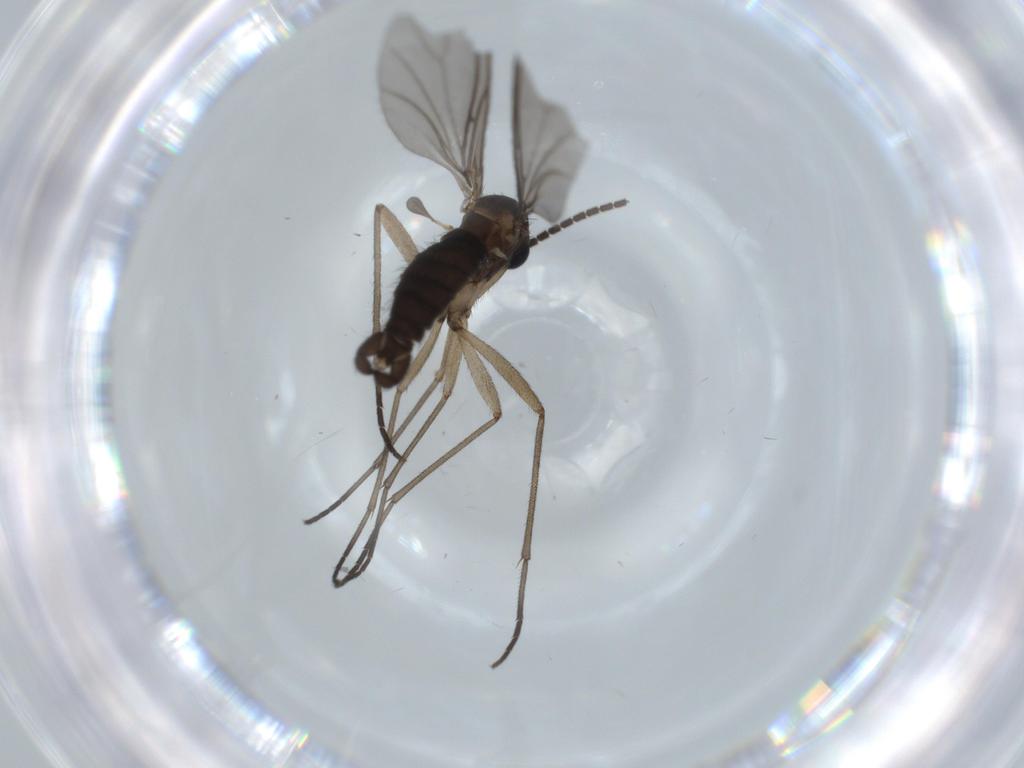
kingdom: Animalia
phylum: Arthropoda
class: Insecta
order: Diptera
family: Sciaridae
